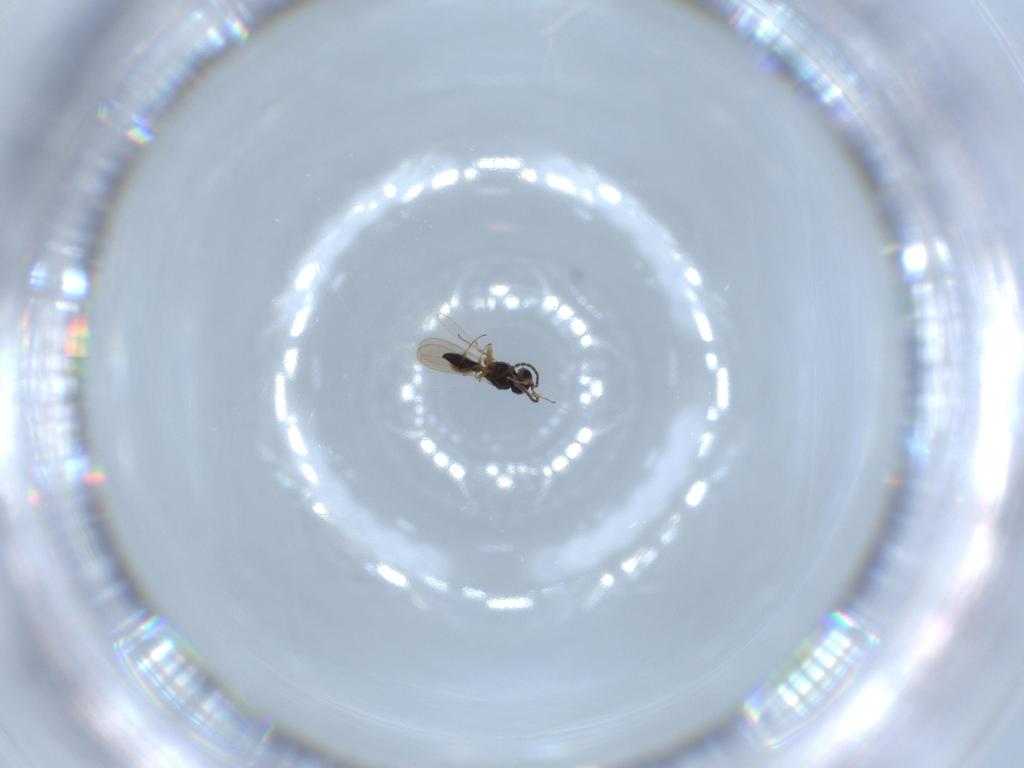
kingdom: Animalia
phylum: Arthropoda
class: Insecta
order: Hymenoptera
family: Scelionidae
